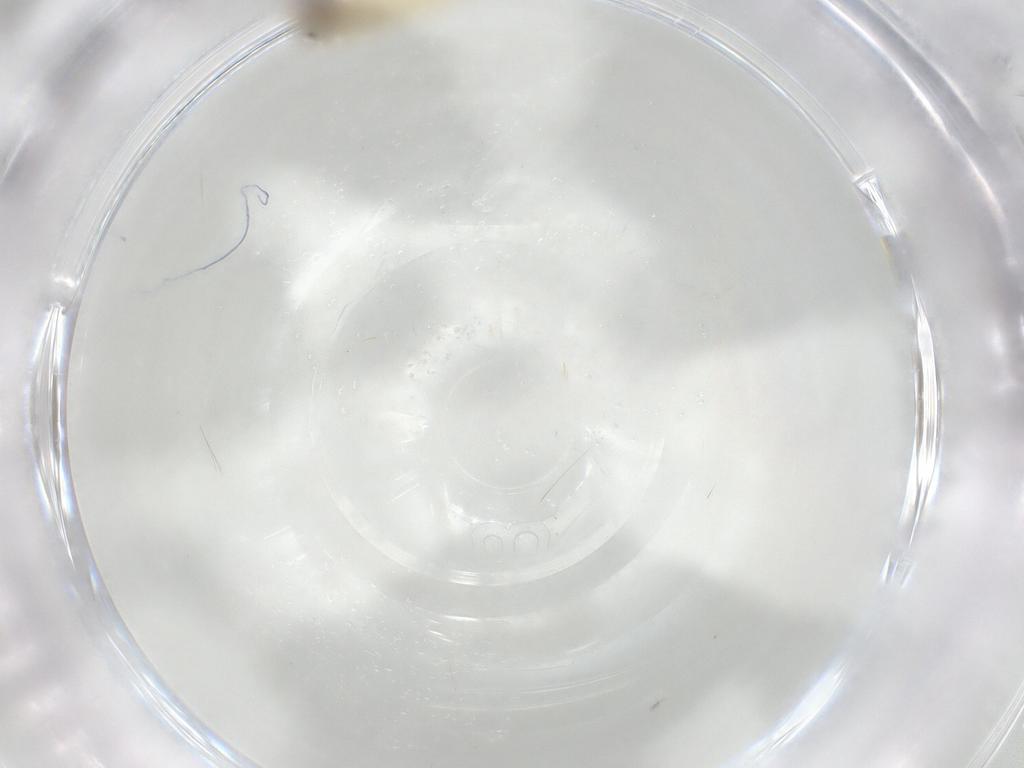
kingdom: Animalia
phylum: Arthropoda
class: Insecta
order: Lepidoptera
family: Gracillariidae
